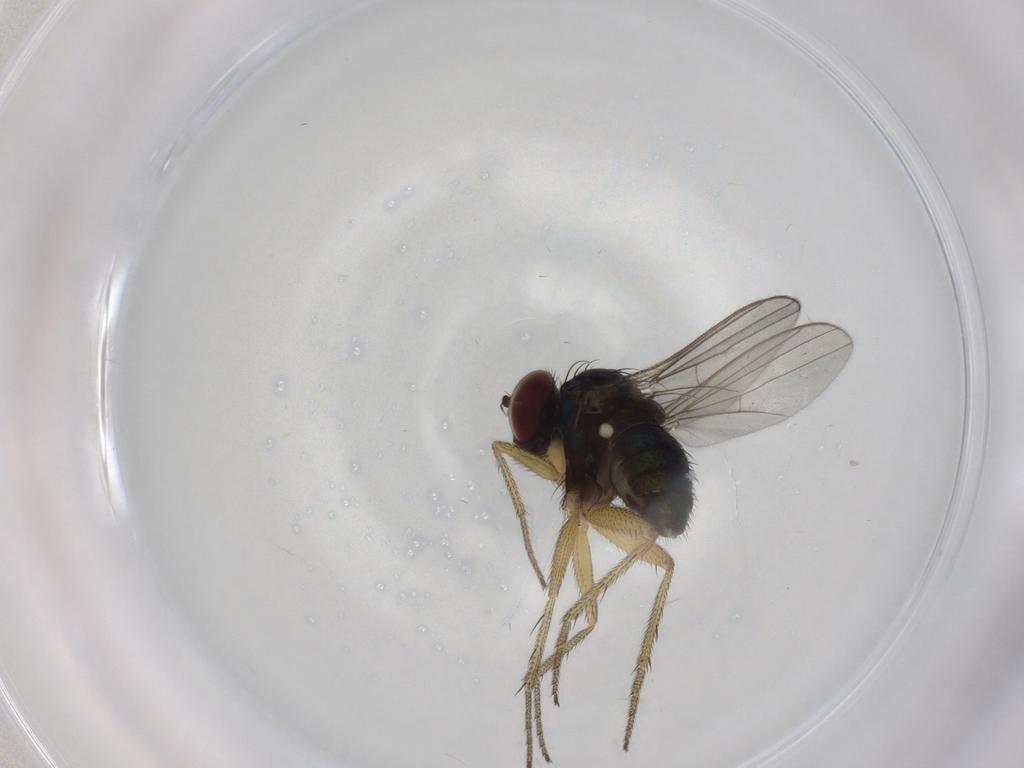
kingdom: Animalia
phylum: Arthropoda
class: Insecta
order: Diptera
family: Dolichopodidae
